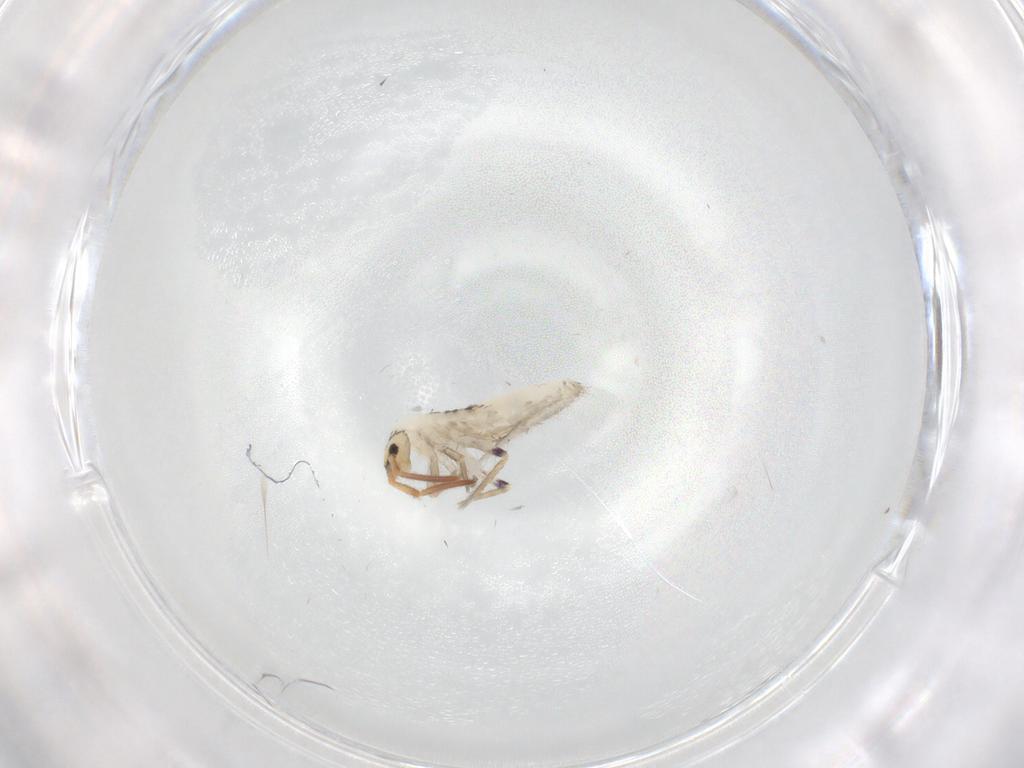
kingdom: Animalia
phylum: Arthropoda
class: Collembola
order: Entomobryomorpha
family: Entomobryidae
